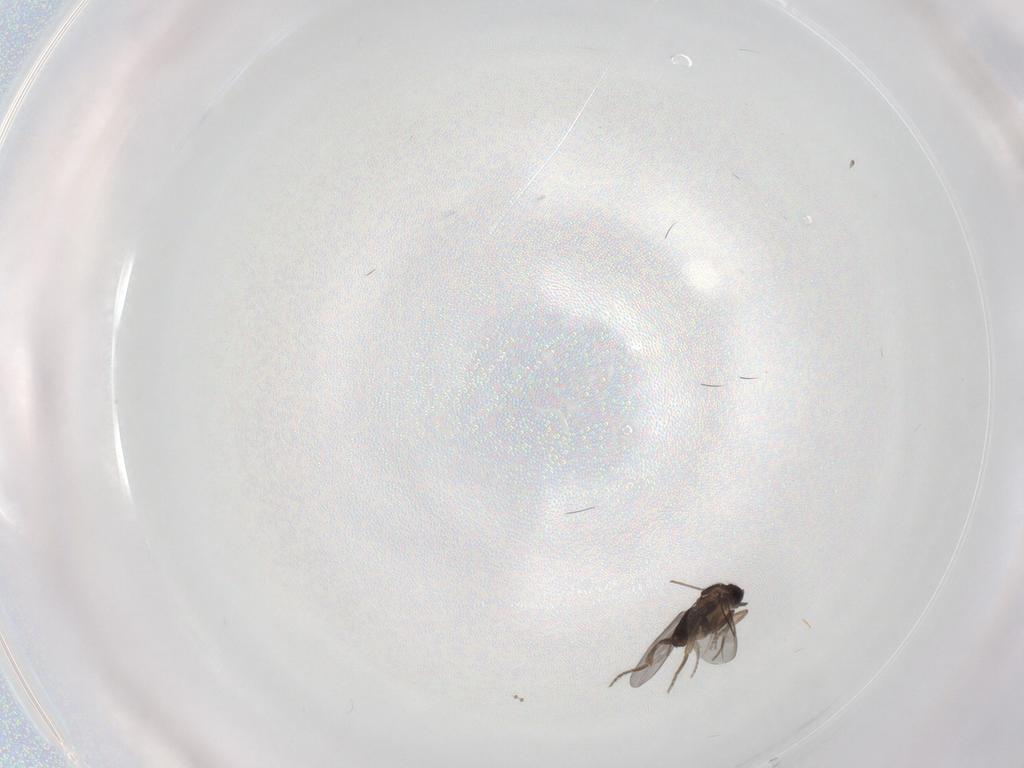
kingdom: Animalia
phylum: Arthropoda
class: Insecta
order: Diptera
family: Psychodidae
